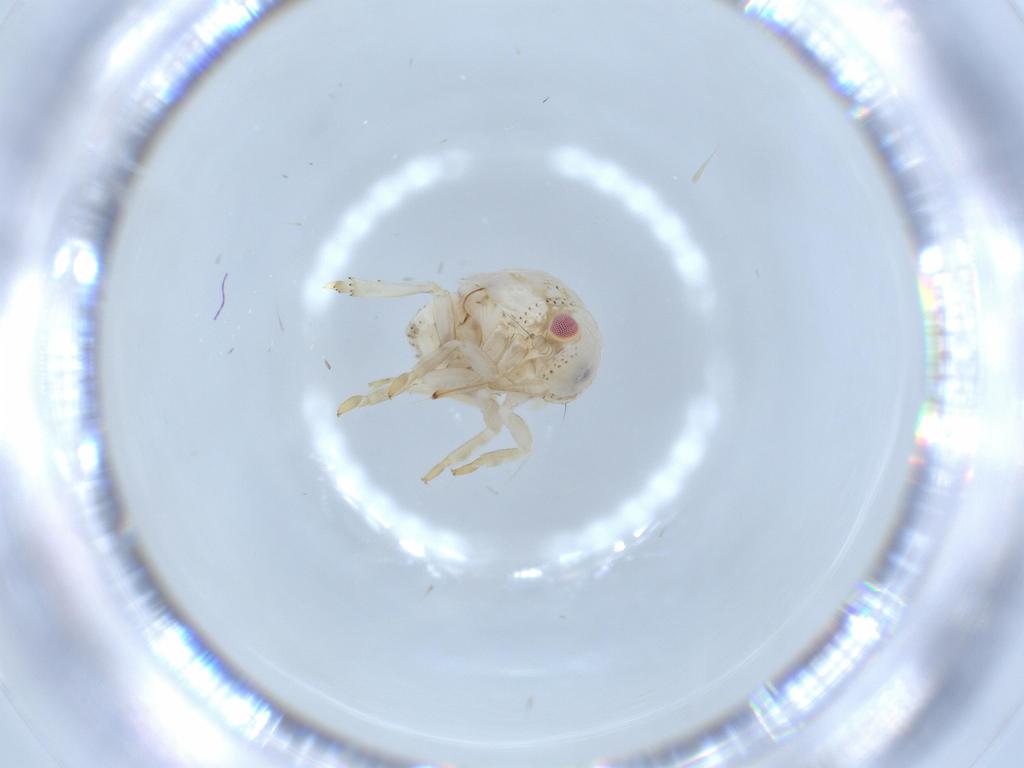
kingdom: Animalia
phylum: Arthropoda
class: Insecta
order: Hemiptera
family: Acanaloniidae
